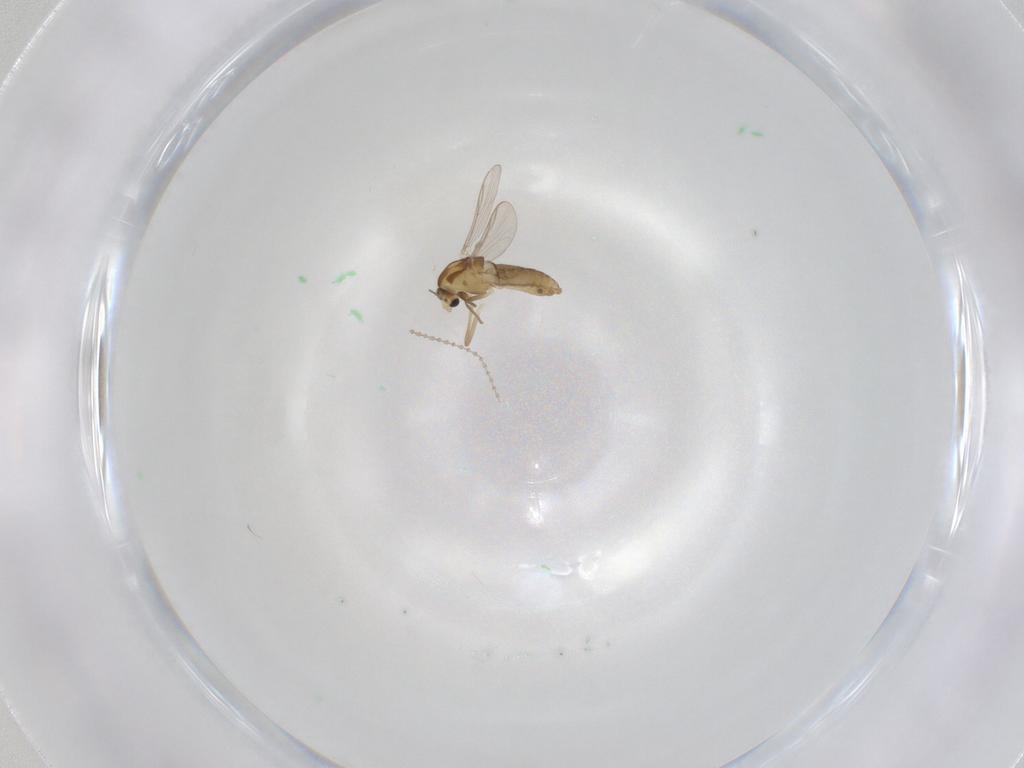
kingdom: Animalia
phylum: Arthropoda
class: Insecta
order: Diptera
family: Chironomidae
